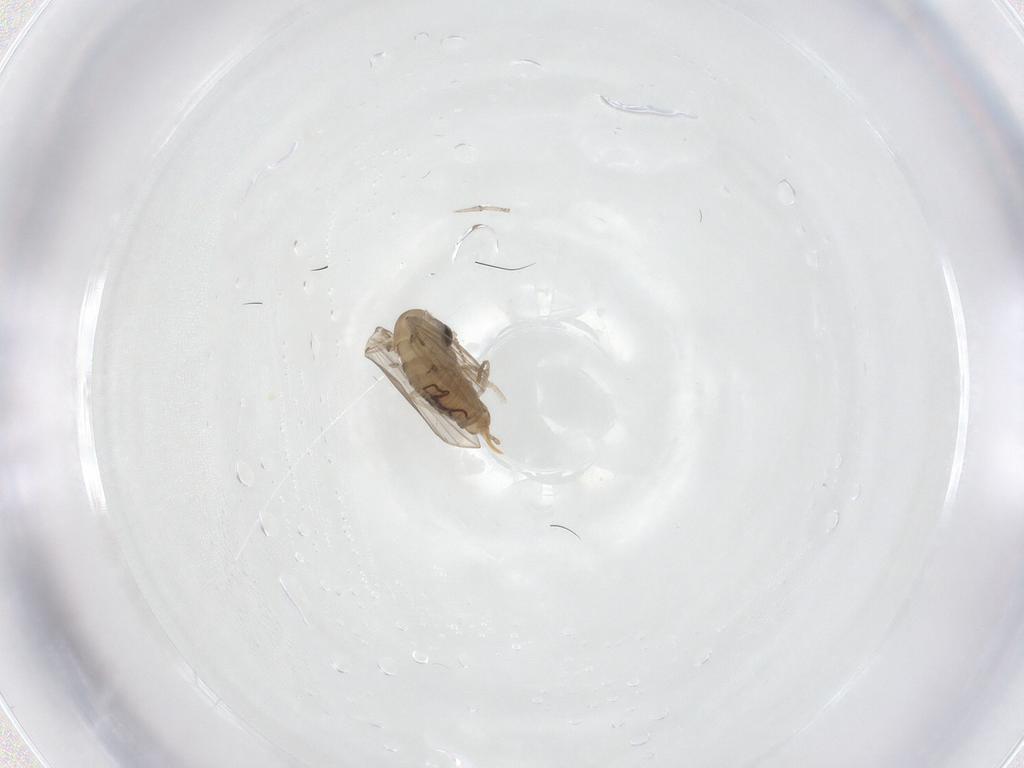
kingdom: Animalia
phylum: Arthropoda
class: Insecta
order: Diptera
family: Psychodidae
